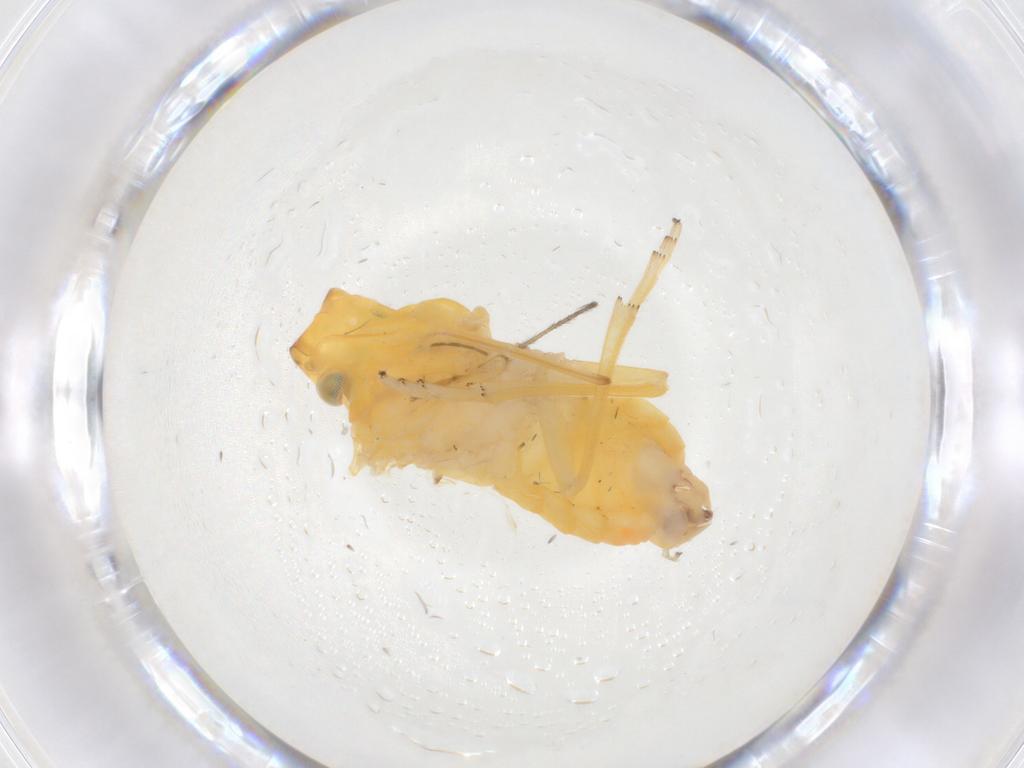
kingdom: Animalia
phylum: Arthropoda
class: Insecta
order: Hemiptera
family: Cixiidae
